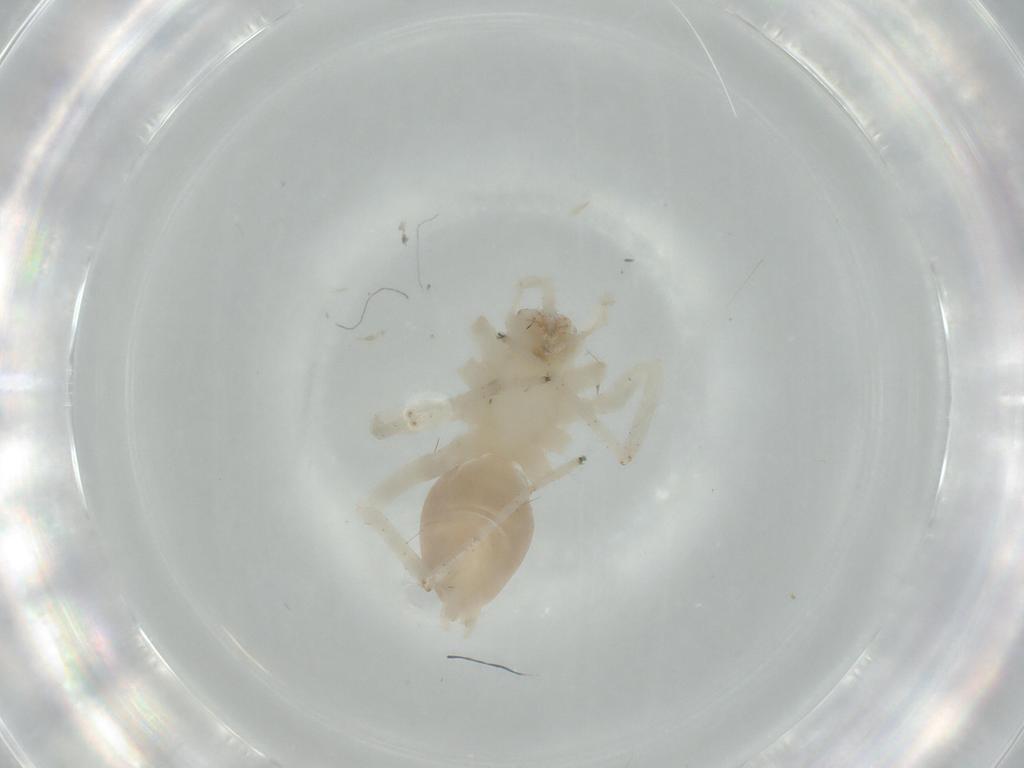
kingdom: Animalia
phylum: Arthropoda
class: Arachnida
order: Araneae
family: Anyphaenidae
